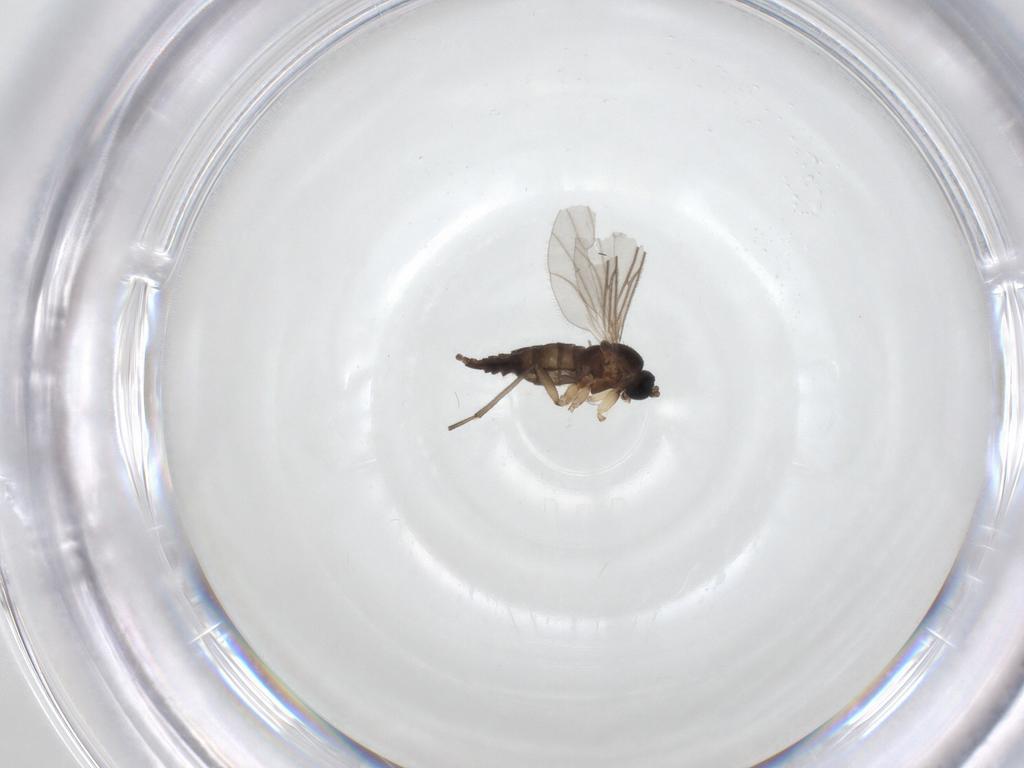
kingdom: Animalia
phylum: Arthropoda
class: Insecta
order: Diptera
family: Sciaridae
